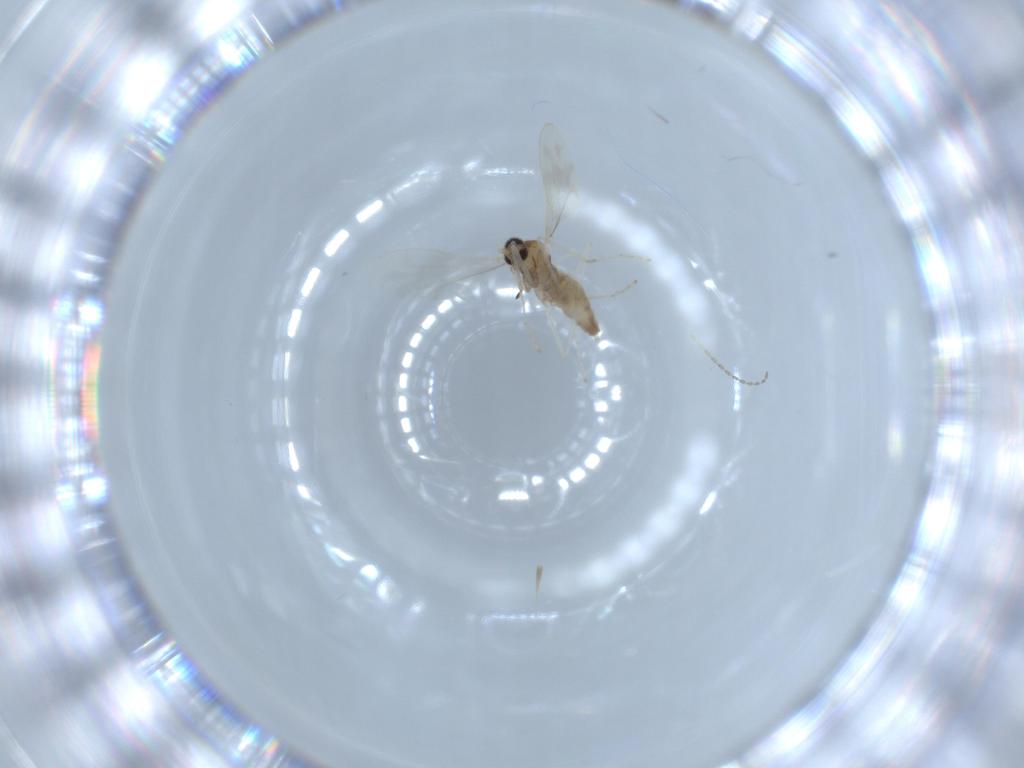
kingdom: Animalia
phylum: Arthropoda
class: Insecta
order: Diptera
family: Cecidomyiidae
